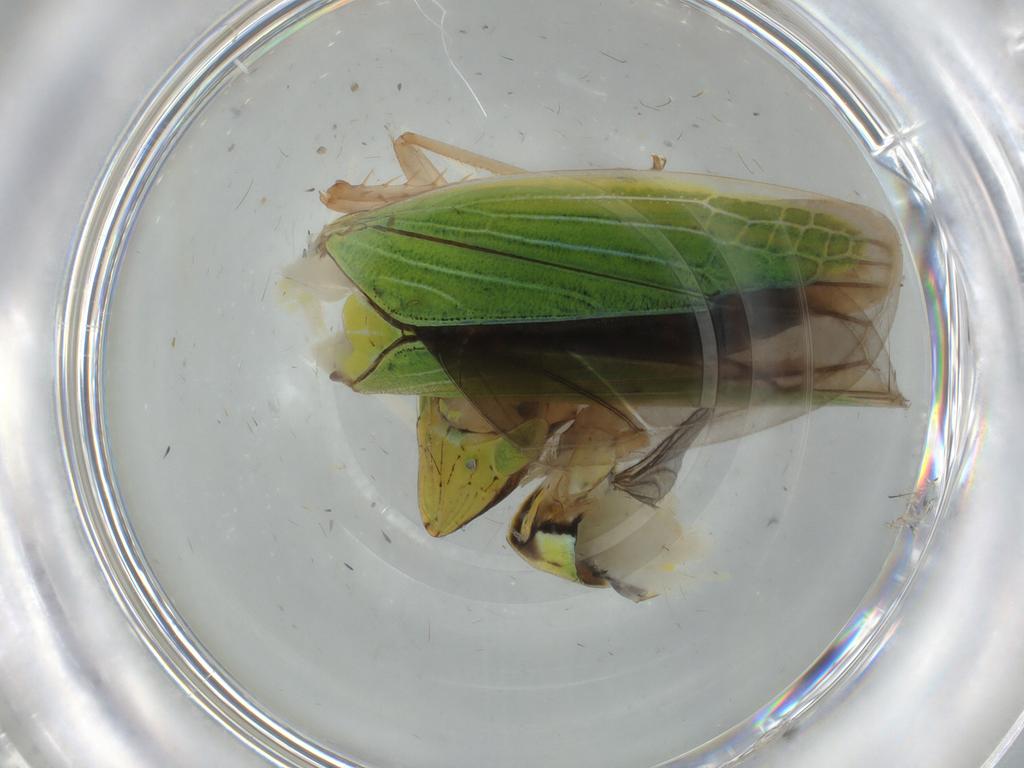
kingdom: Animalia
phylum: Arthropoda
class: Insecta
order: Hemiptera
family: Cicadellidae
